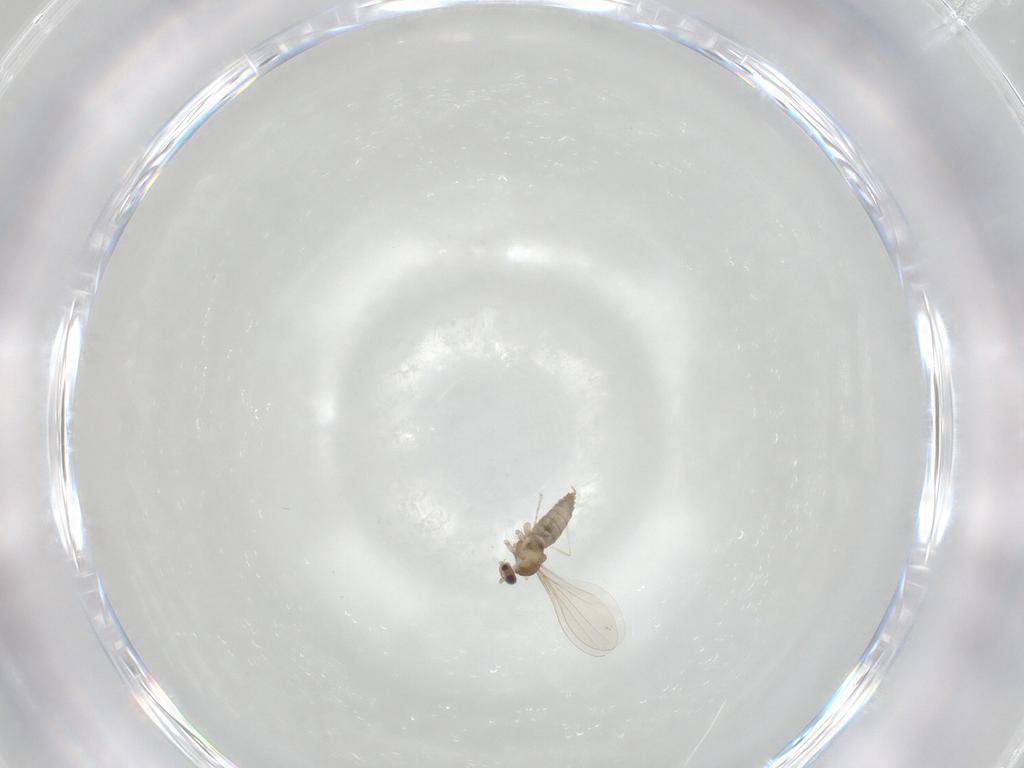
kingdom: Animalia
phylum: Arthropoda
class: Insecta
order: Diptera
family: Cecidomyiidae
